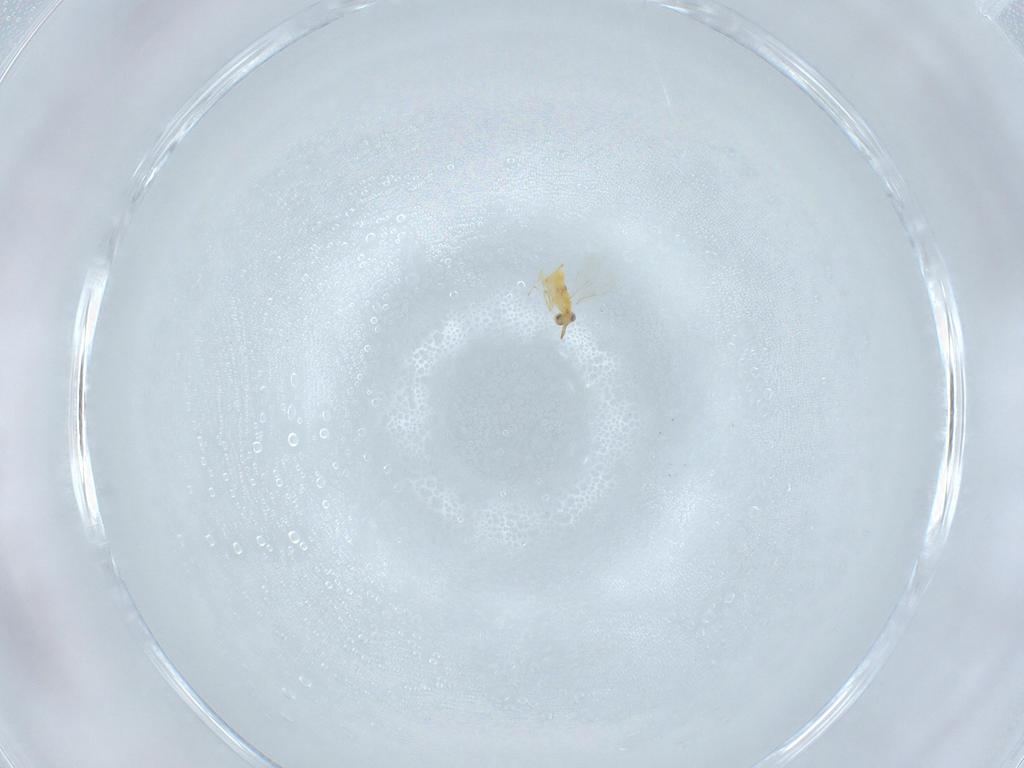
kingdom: Animalia
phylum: Arthropoda
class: Insecta
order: Hymenoptera
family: Aphelinidae
